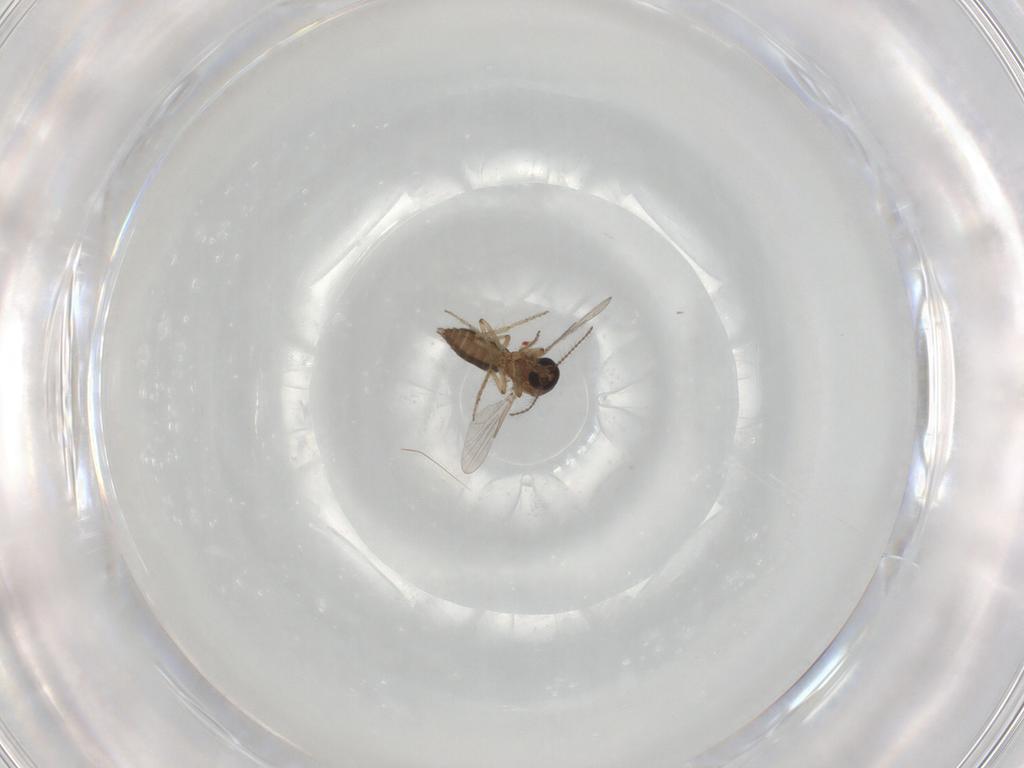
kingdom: Animalia
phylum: Arthropoda
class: Insecta
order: Diptera
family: Ceratopogonidae
